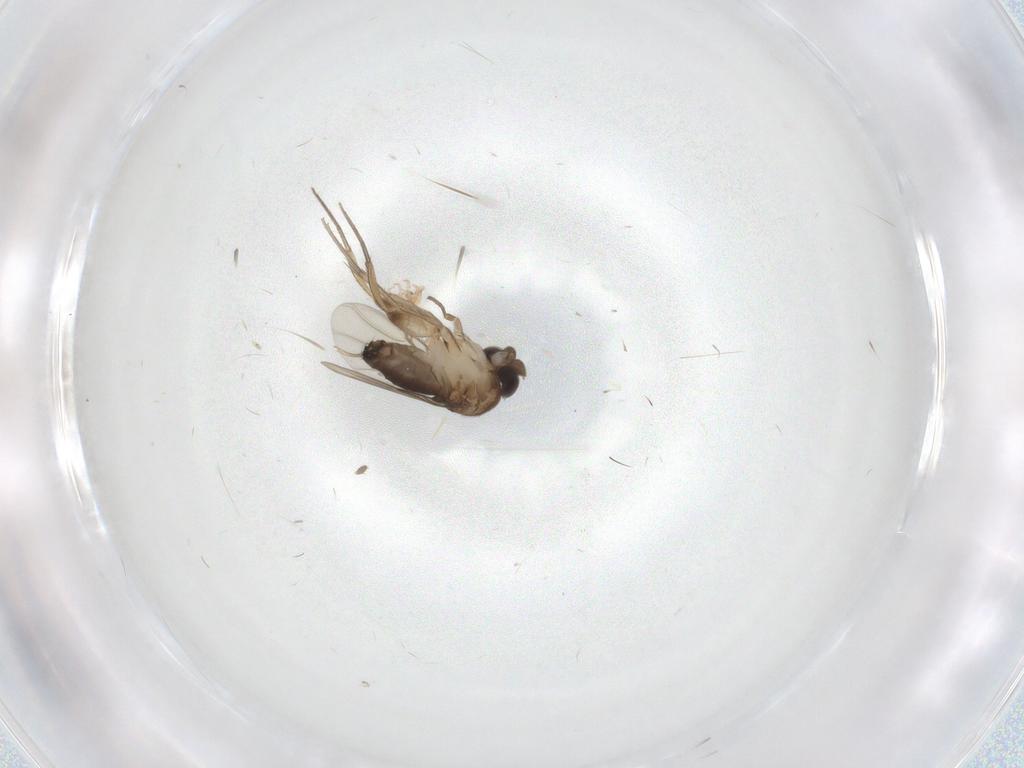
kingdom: Animalia
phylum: Arthropoda
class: Insecta
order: Diptera
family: Phoridae
